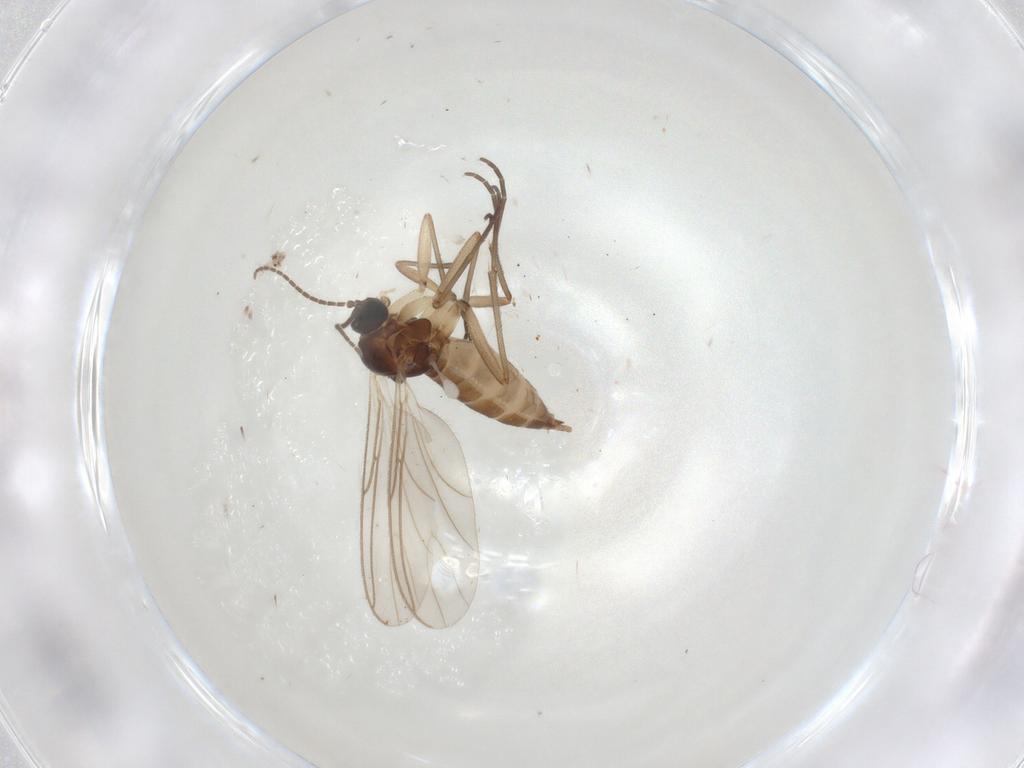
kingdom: Animalia
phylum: Arthropoda
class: Insecta
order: Diptera
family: Sciaridae
